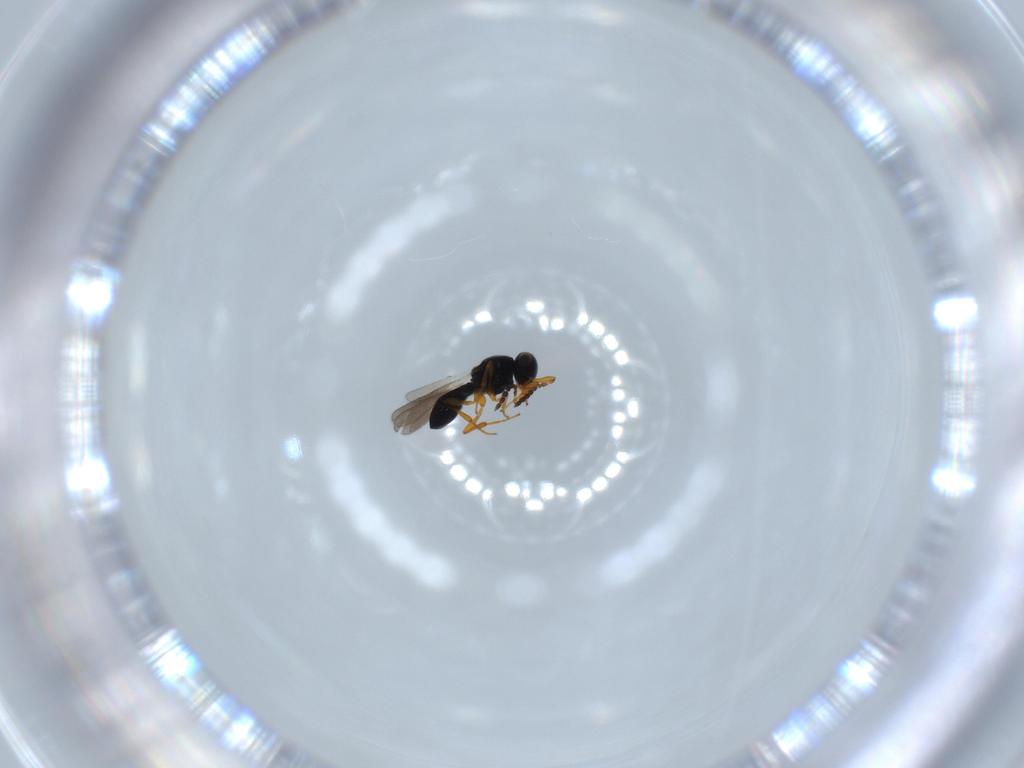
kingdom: Animalia
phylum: Arthropoda
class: Insecta
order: Hymenoptera
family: Platygastridae
